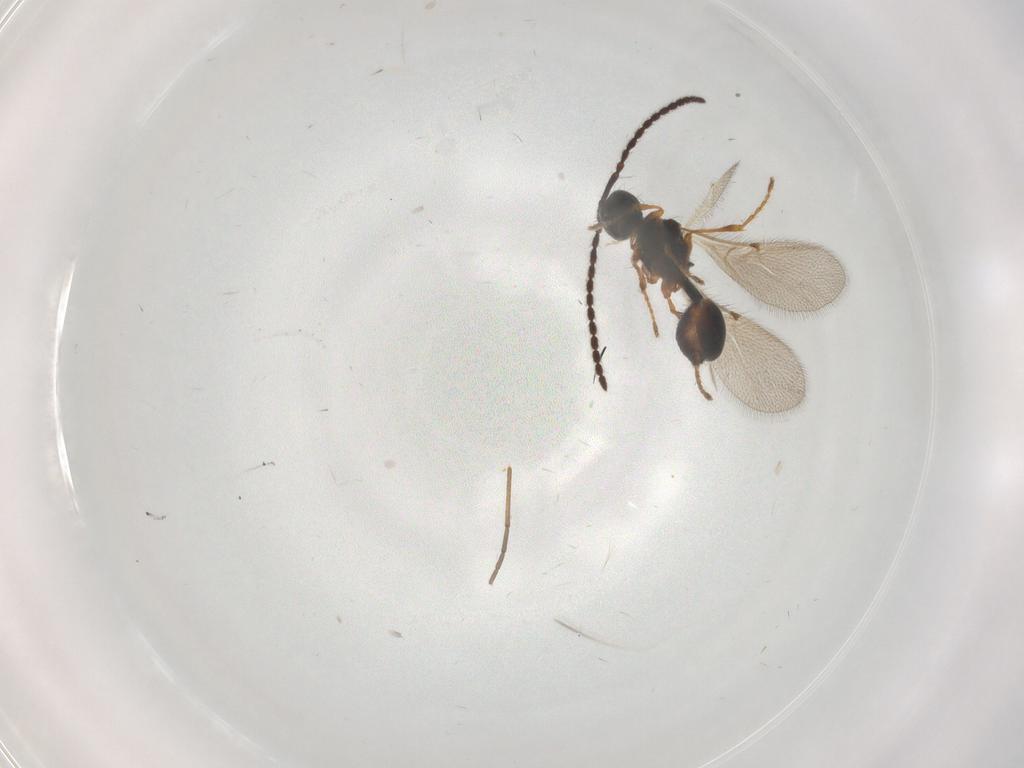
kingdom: Animalia
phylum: Arthropoda
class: Insecta
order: Hymenoptera
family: Diapriidae
